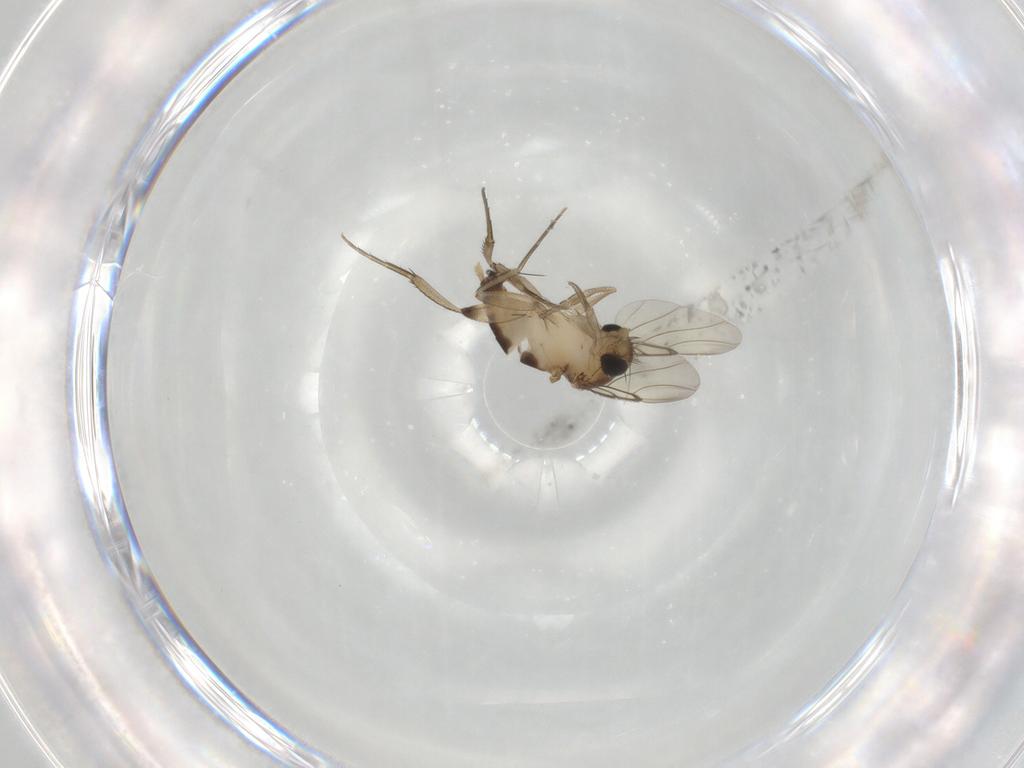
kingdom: Animalia
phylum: Arthropoda
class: Insecta
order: Diptera
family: Phoridae
